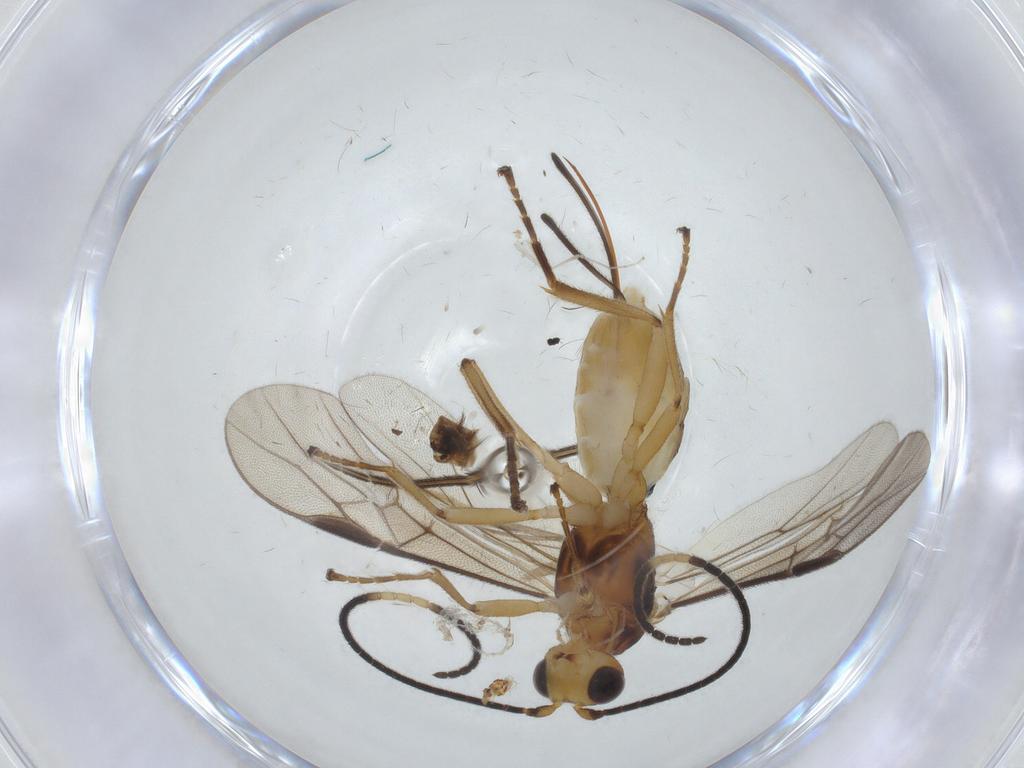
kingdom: Animalia
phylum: Arthropoda
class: Insecta
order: Hymenoptera
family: Braconidae
